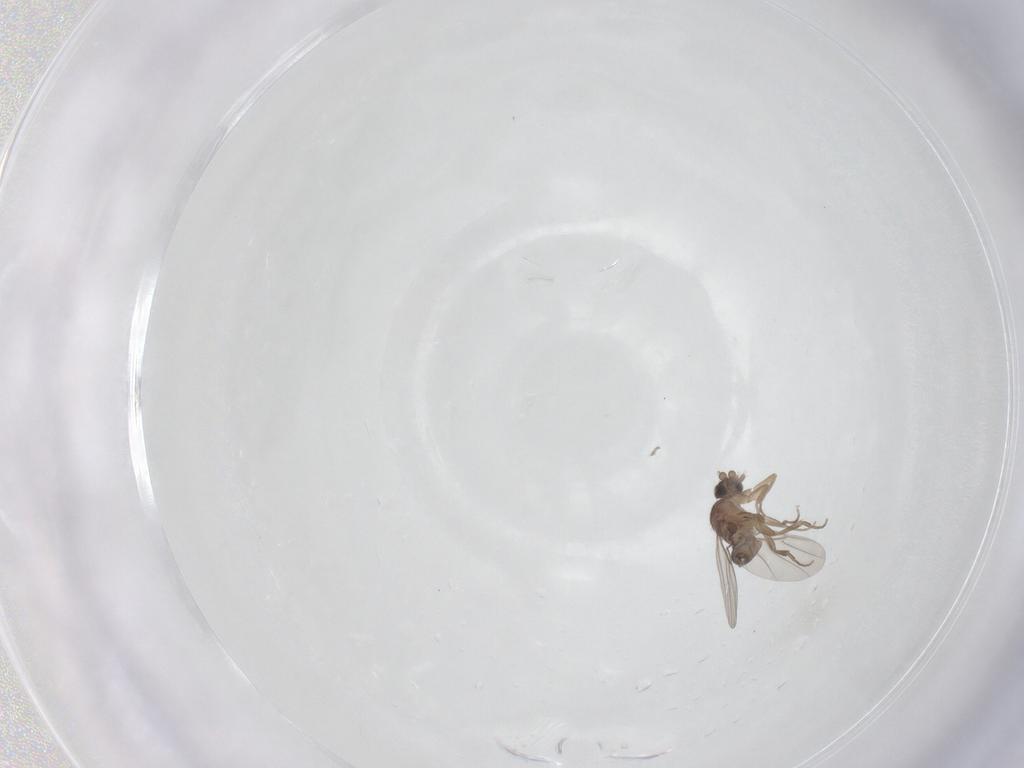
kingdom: Animalia
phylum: Arthropoda
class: Insecta
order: Diptera
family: Phoridae
